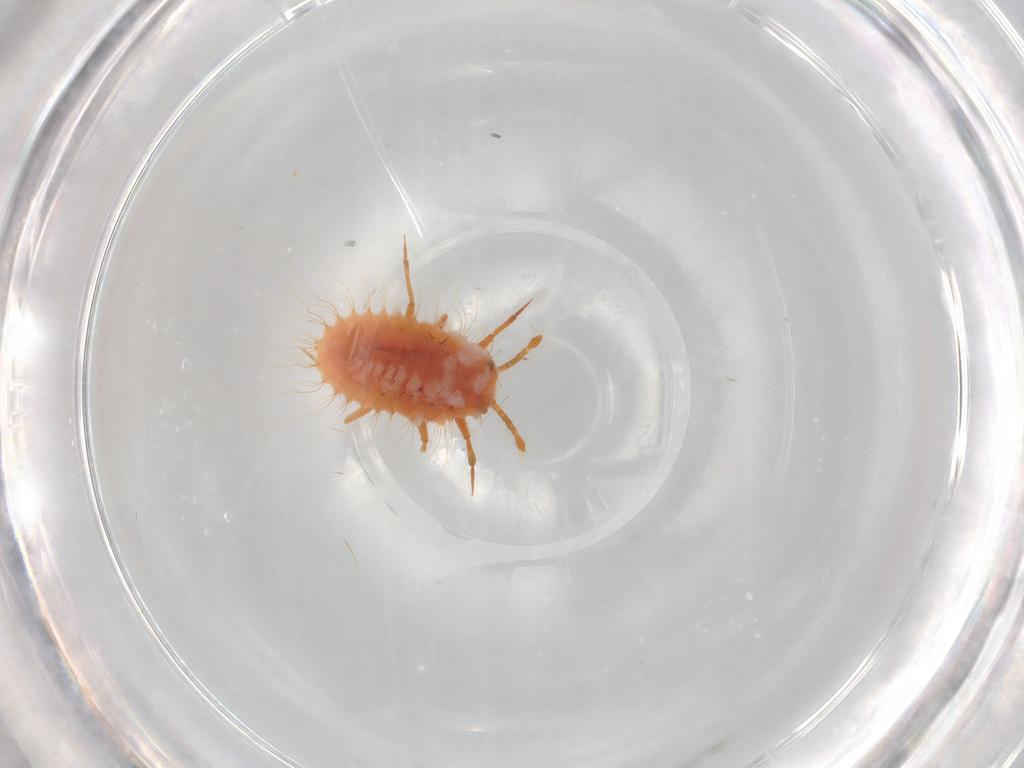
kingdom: Animalia
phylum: Arthropoda
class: Insecta
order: Hemiptera
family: Coccoidea_incertae_sedis
